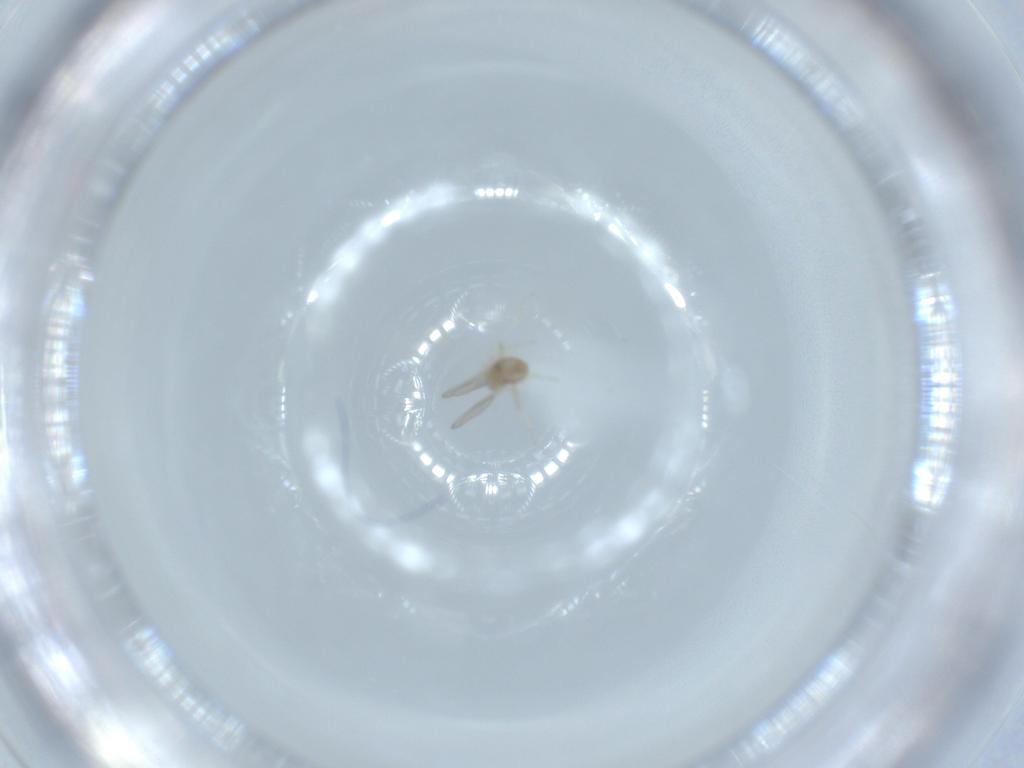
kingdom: Animalia
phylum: Arthropoda
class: Insecta
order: Diptera
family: Cecidomyiidae
